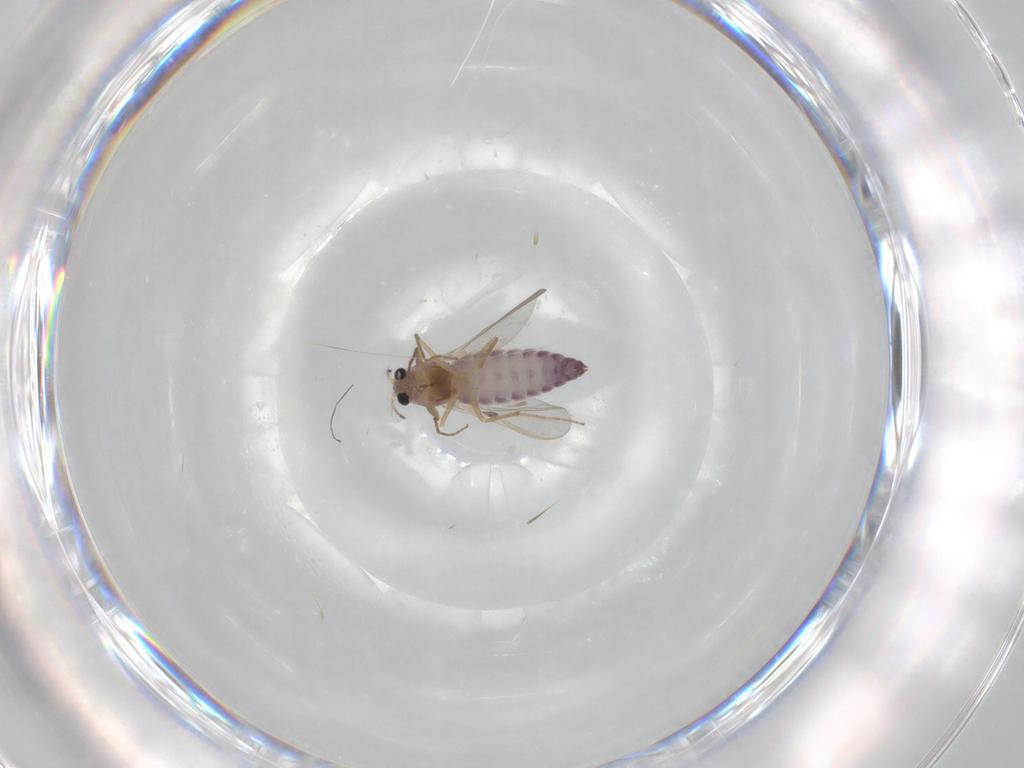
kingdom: Animalia
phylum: Arthropoda
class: Insecta
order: Diptera
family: Chironomidae
